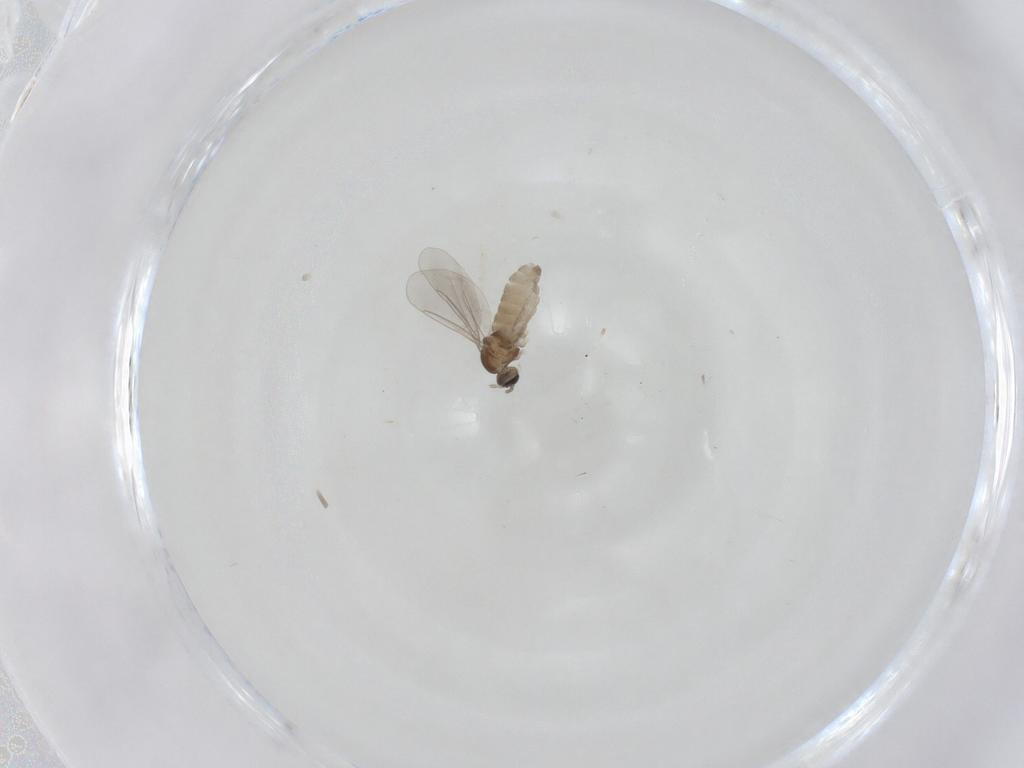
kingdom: Animalia
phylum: Arthropoda
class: Insecta
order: Diptera
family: Cecidomyiidae
